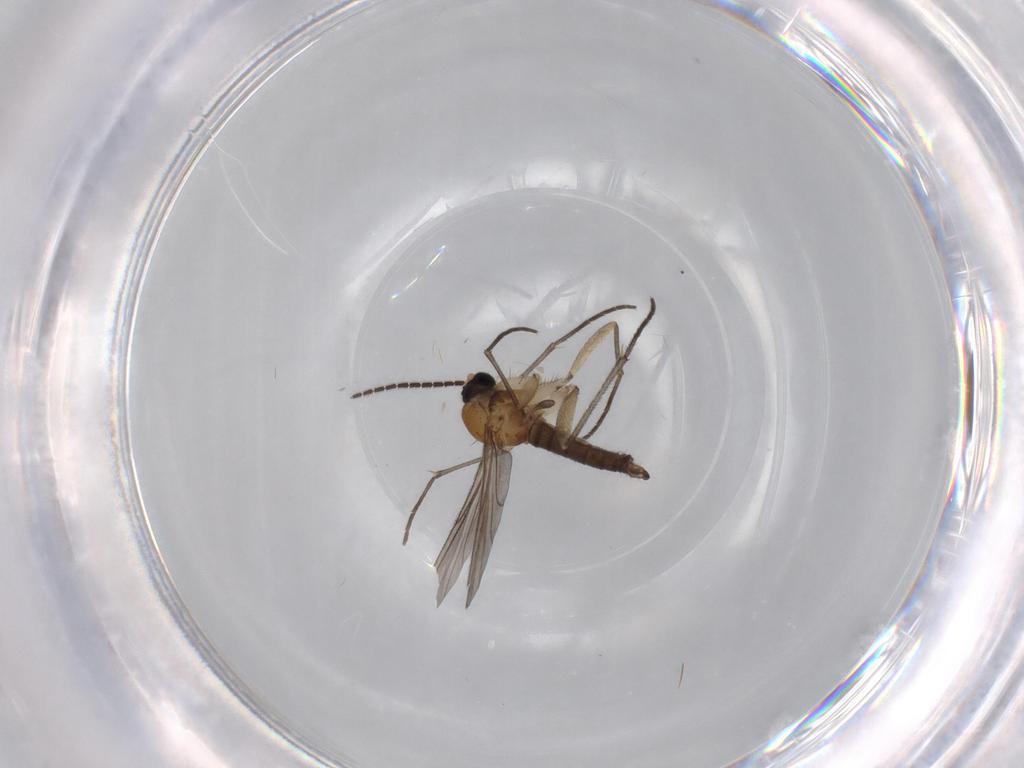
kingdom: Animalia
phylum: Arthropoda
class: Insecta
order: Diptera
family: Sciaridae
